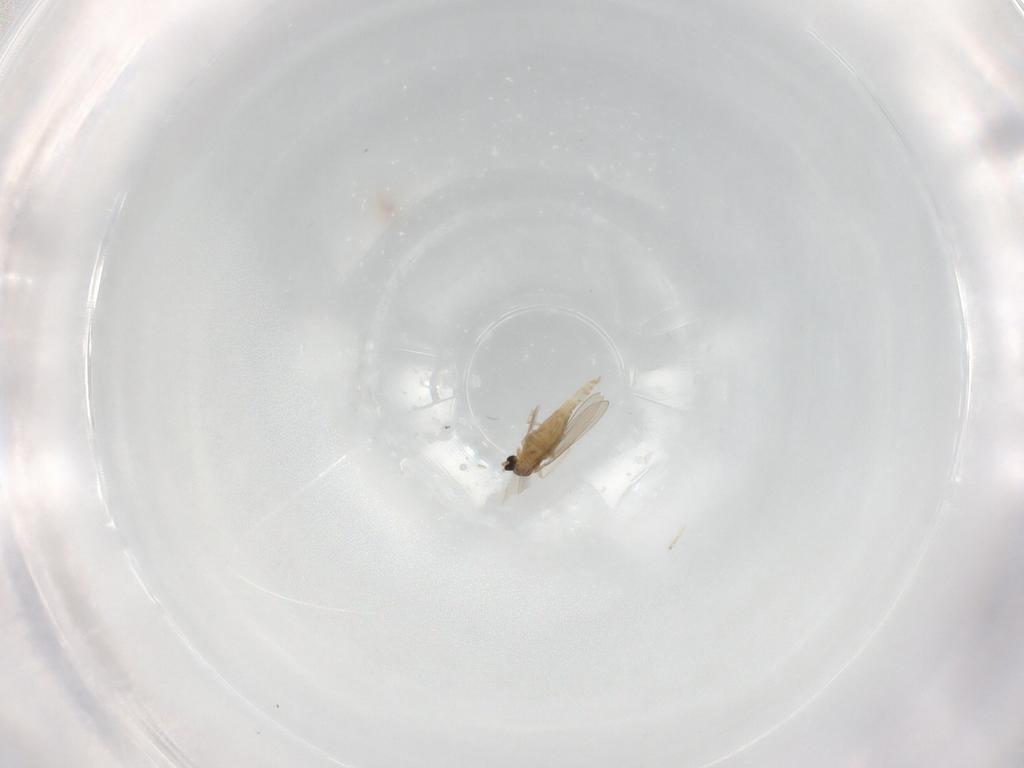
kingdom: Animalia
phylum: Arthropoda
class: Insecta
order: Diptera
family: Mycetophilidae
